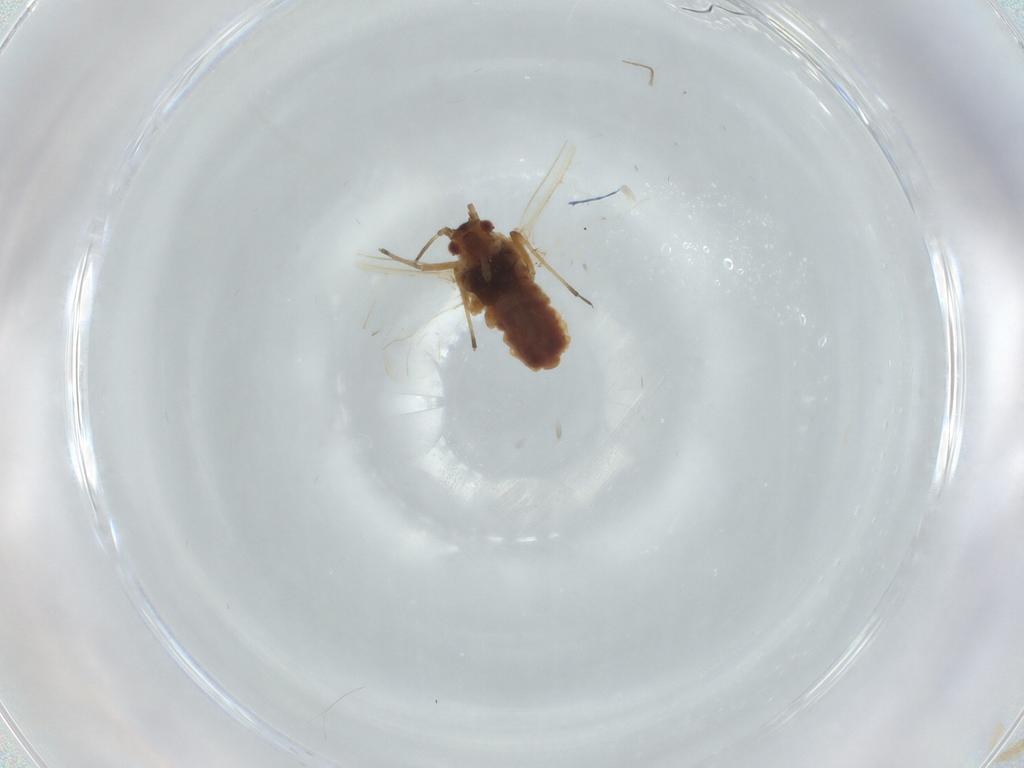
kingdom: Animalia
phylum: Arthropoda
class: Insecta
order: Hemiptera
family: Aphididae
